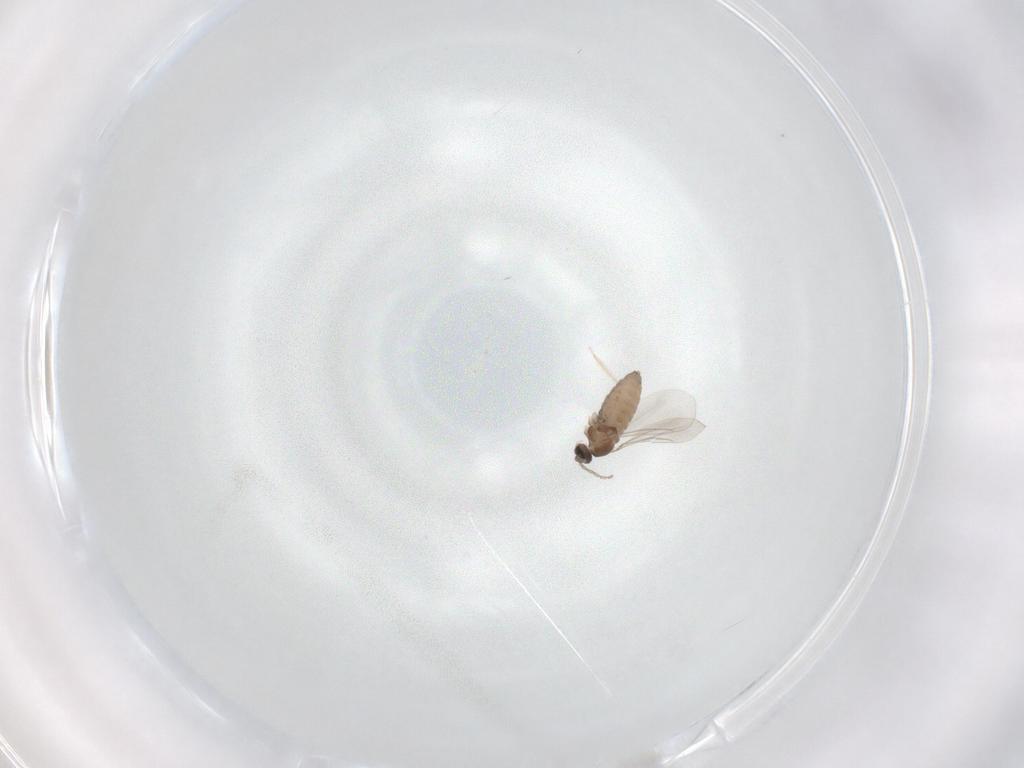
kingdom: Animalia
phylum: Arthropoda
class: Insecta
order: Diptera
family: Cecidomyiidae
